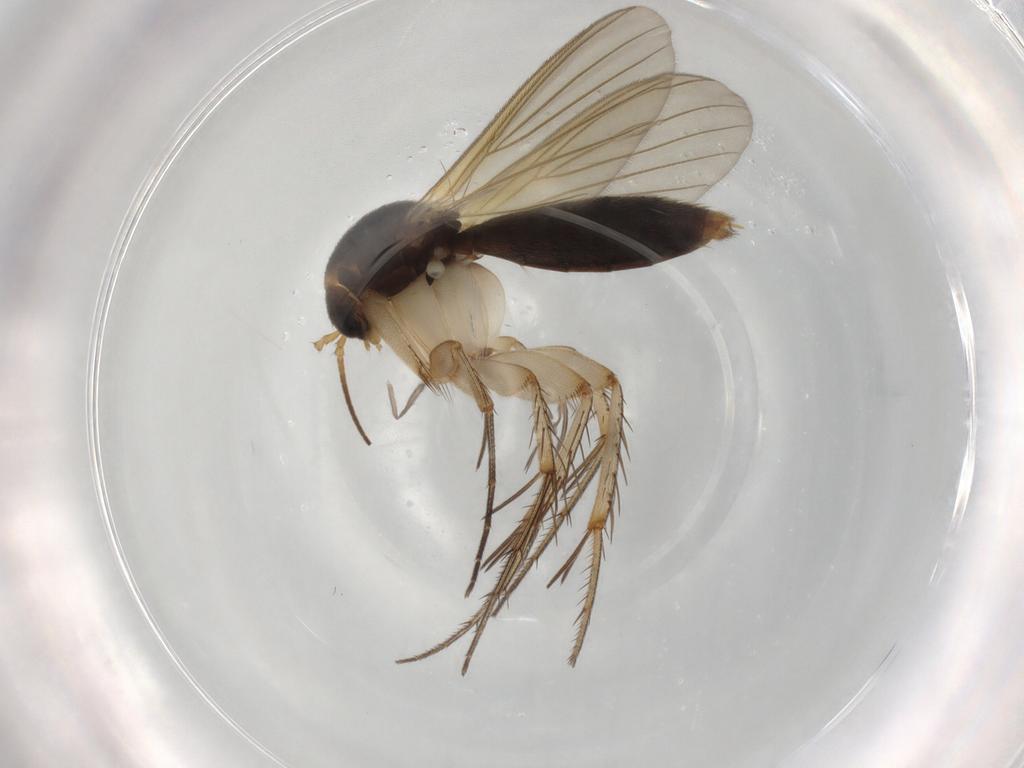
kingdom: Animalia
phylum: Arthropoda
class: Insecta
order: Diptera
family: Mycetophilidae
